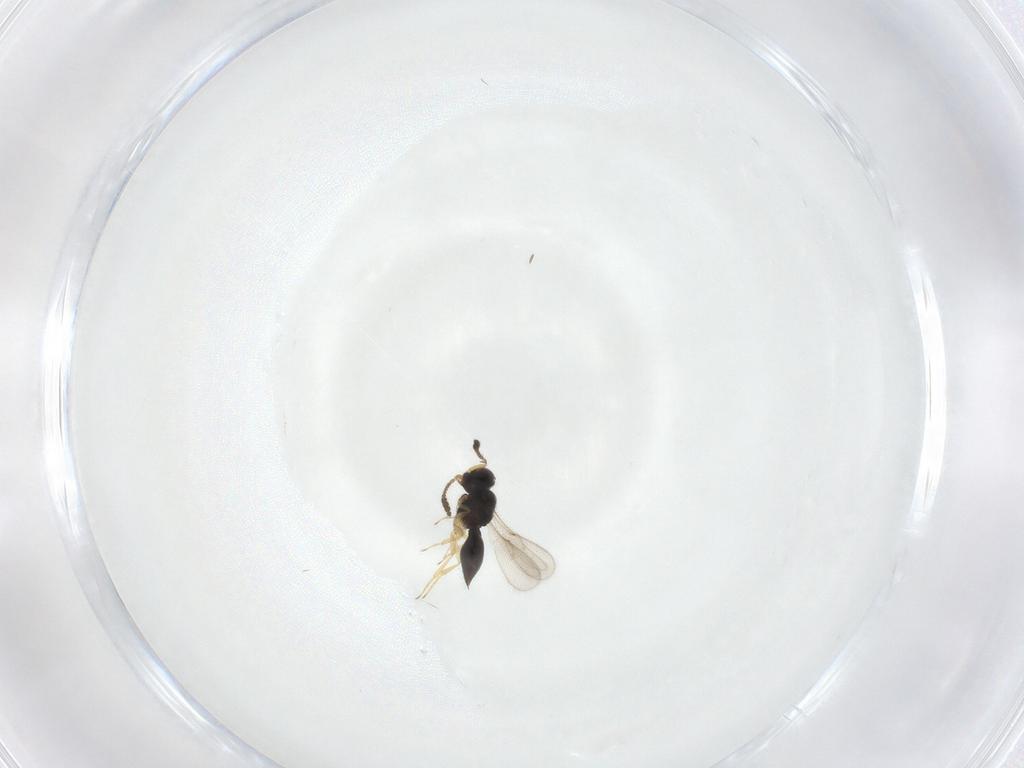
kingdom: Animalia
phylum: Arthropoda
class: Insecta
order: Hymenoptera
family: Scelionidae
